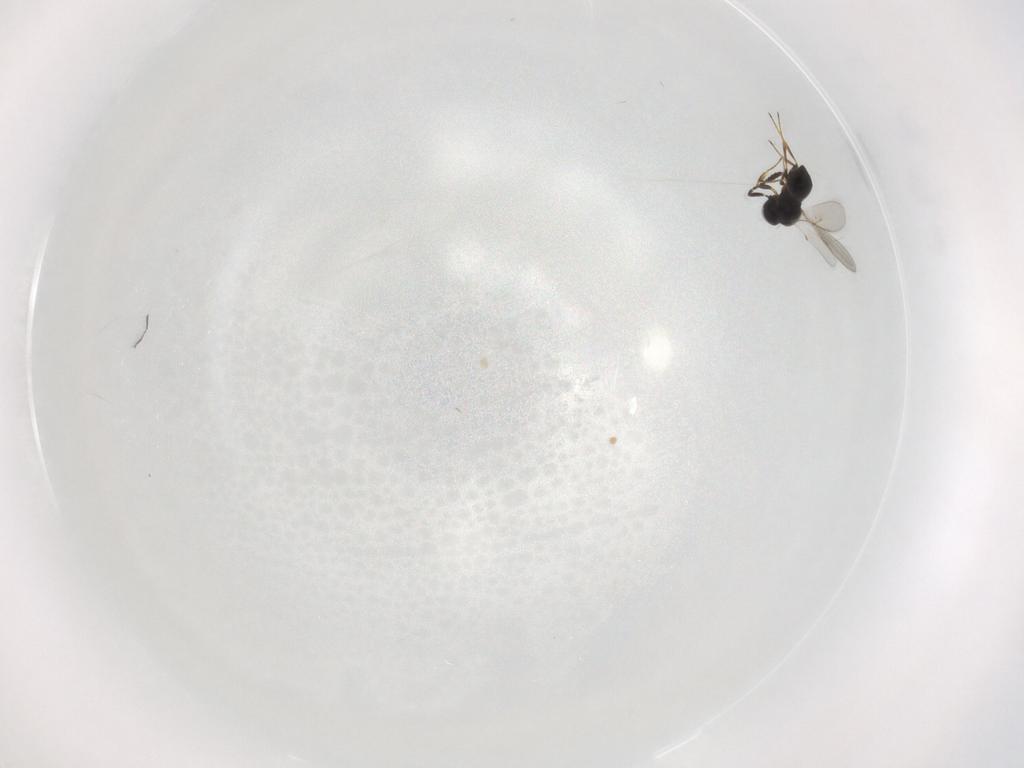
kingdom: Animalia
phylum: Arthropoda
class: Insecta
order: Hymenoptera
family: Scelionidae
